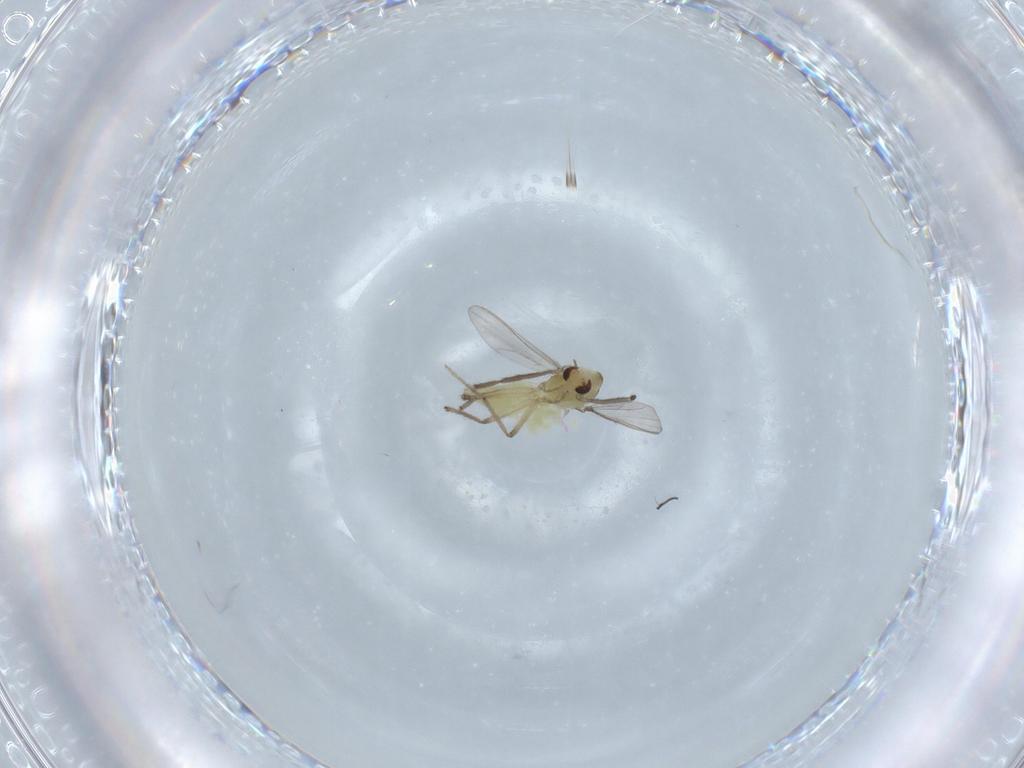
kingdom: Animalia
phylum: Arthropoda
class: Insecta
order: Diptera
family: Chironomidae
